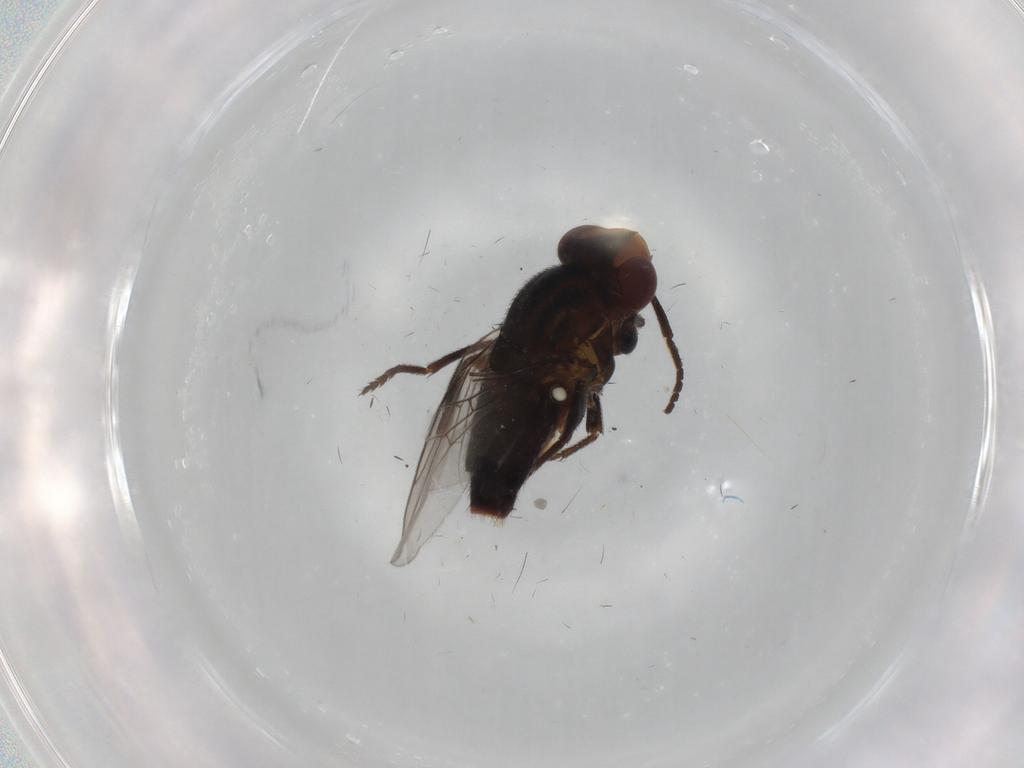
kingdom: Animalia
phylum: Arthropoda
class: Insecta
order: Diptera
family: Chloropidae
